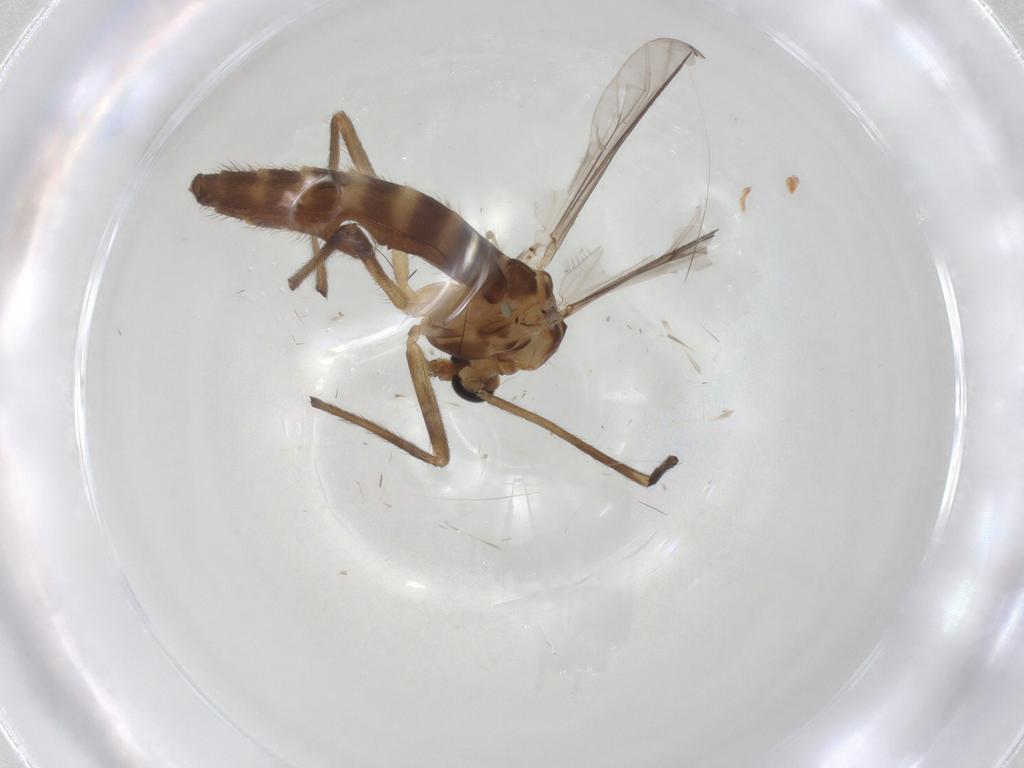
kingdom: Animalia
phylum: Arthropoda
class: Insecta
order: Diptera
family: Chironomidae
